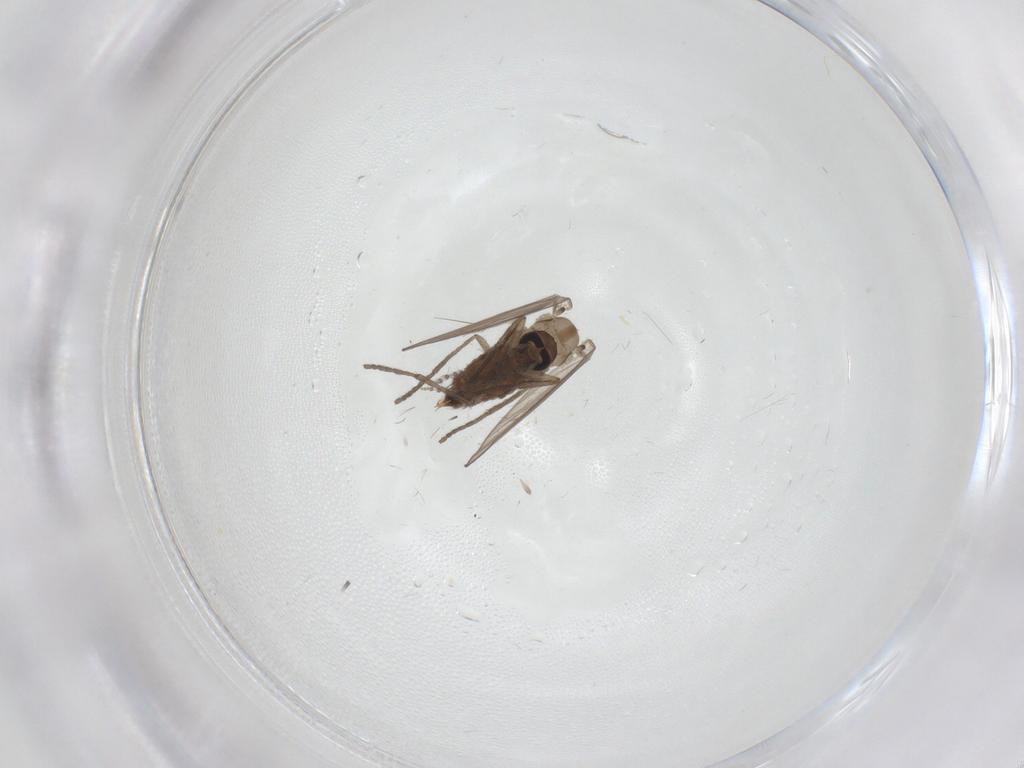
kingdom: Animalia
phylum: Arthropoda
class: Insecta
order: Diptera
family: Psychodidae
